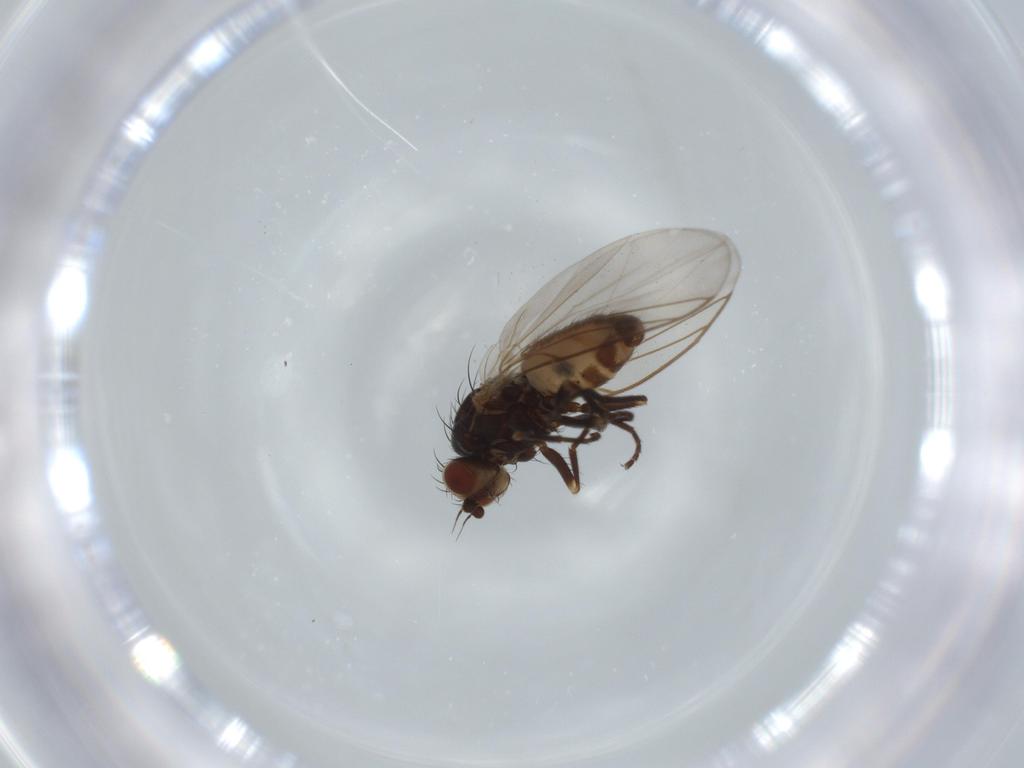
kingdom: Animalia
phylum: Arthropoda
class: Insecta
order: Diptera
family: Agromyzidae
